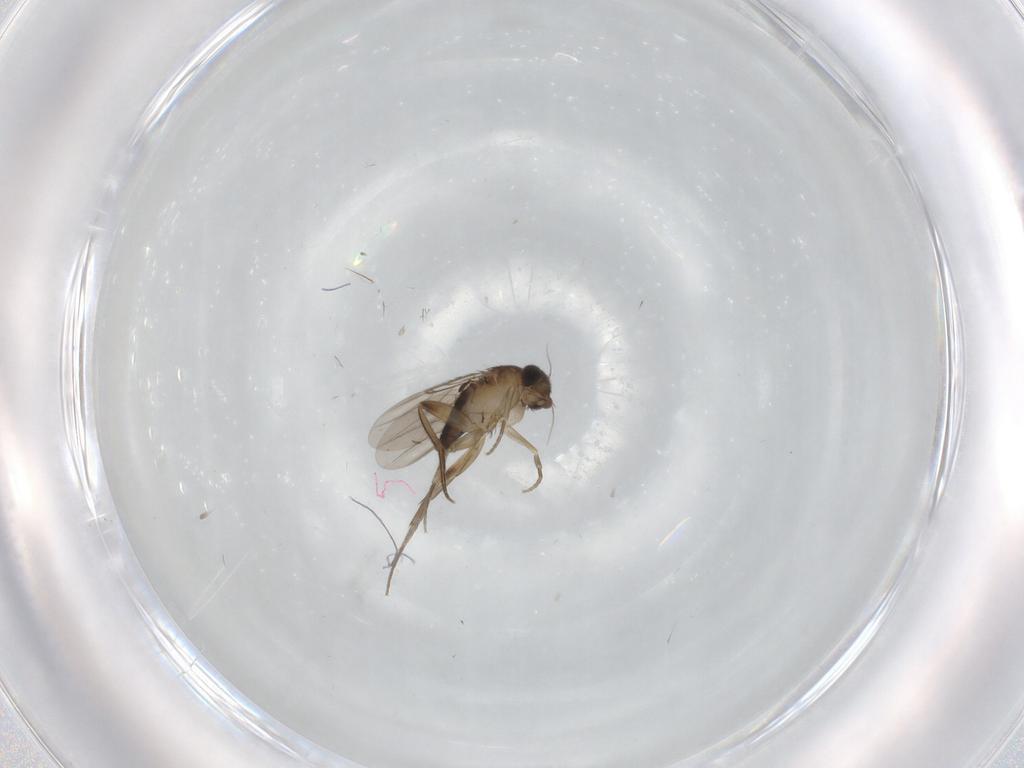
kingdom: Animalia
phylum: Arthropoda
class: Insecta
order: Diptera
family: Phoridae
